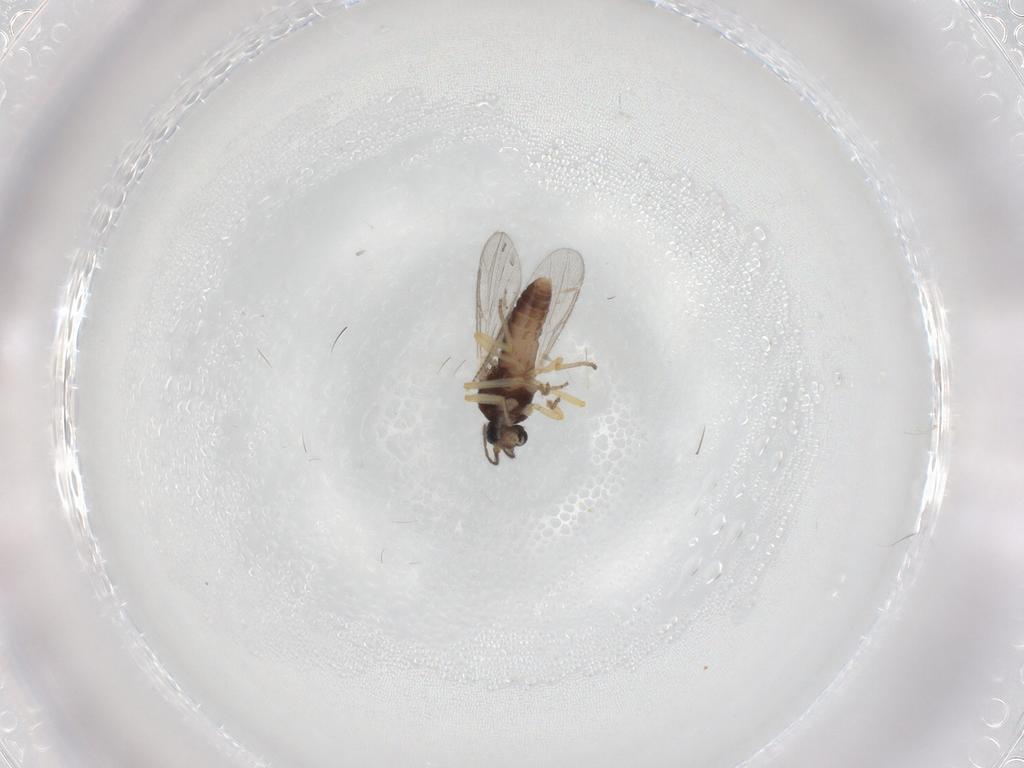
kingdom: Animalia
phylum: Arthropoda
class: Insecta
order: Diptera
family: Ceratopogonidae
